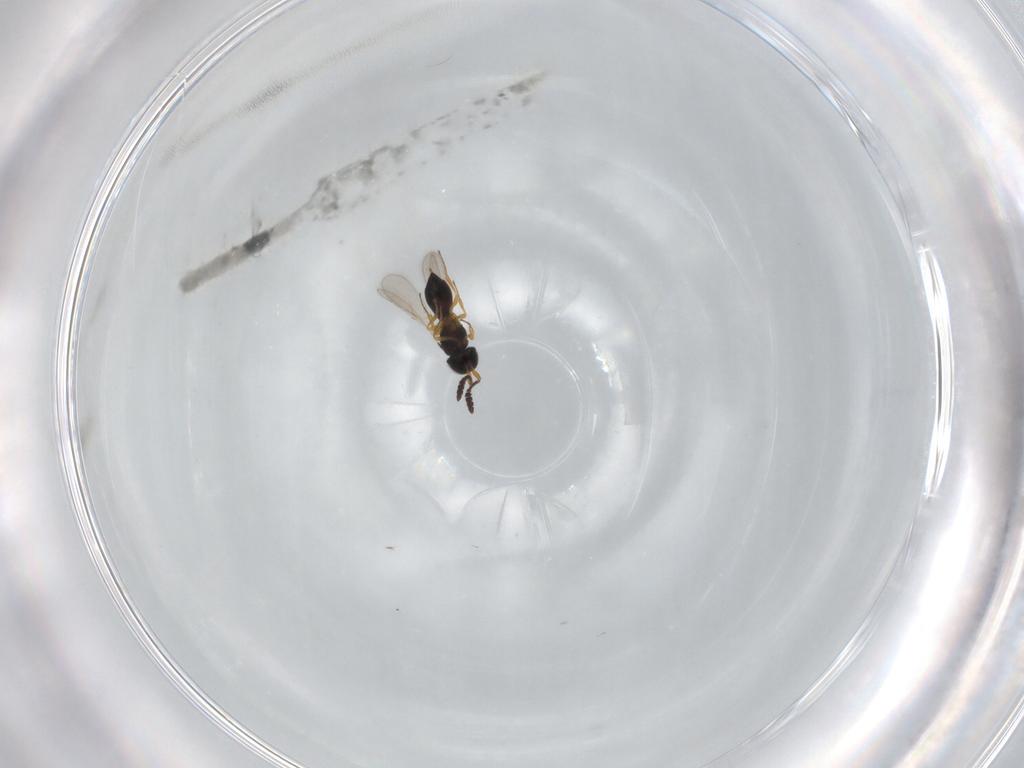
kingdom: Animalia
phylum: Arthropoda
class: Insecta
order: Hymenoptera
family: Scelionidae
